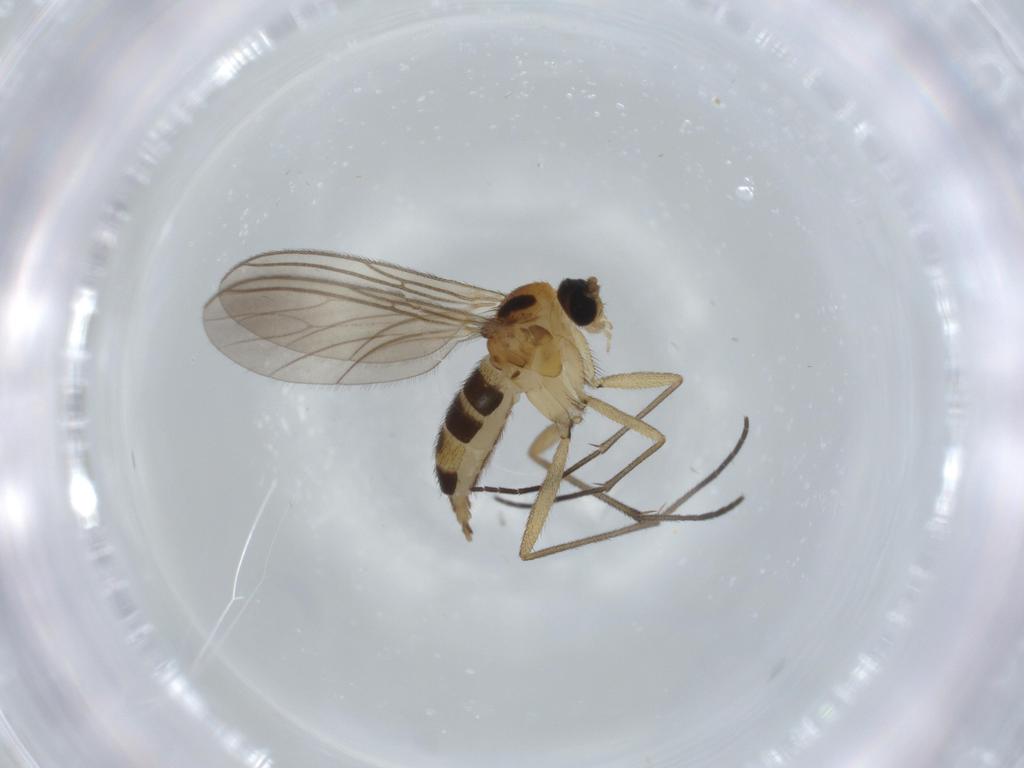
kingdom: Animalia
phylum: Arthropoda
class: Insecta
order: Diptera
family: Sciaridae
